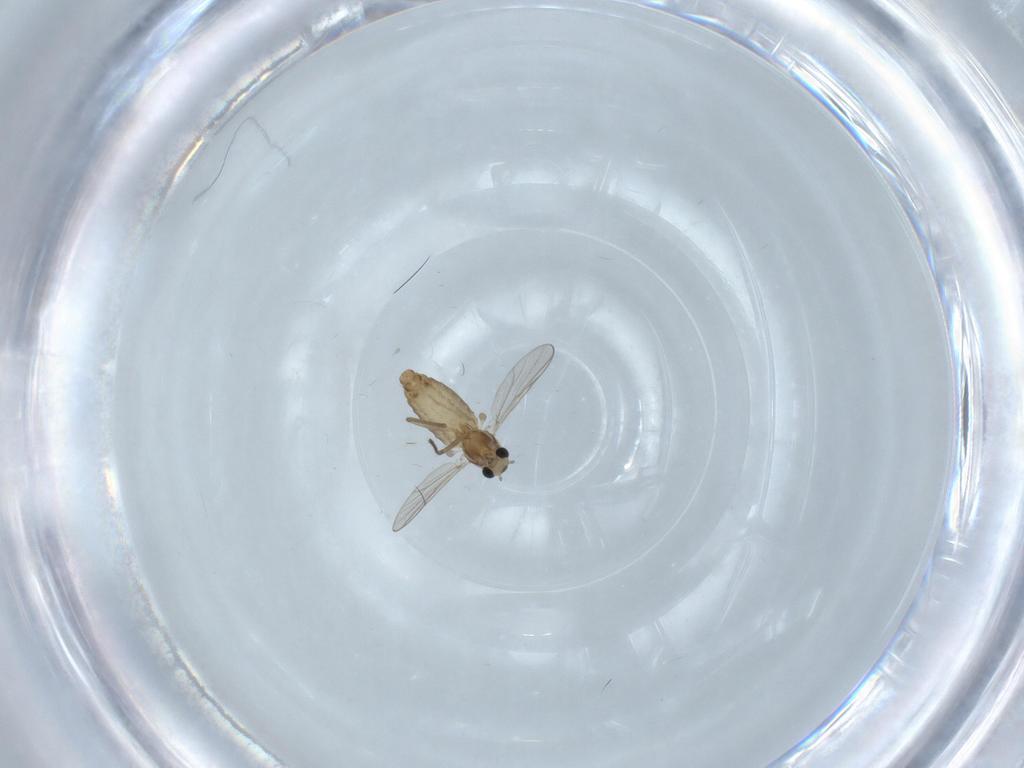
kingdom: Animalia
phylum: Arthropoda
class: Insecta
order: Diptera
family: Chironomidae
